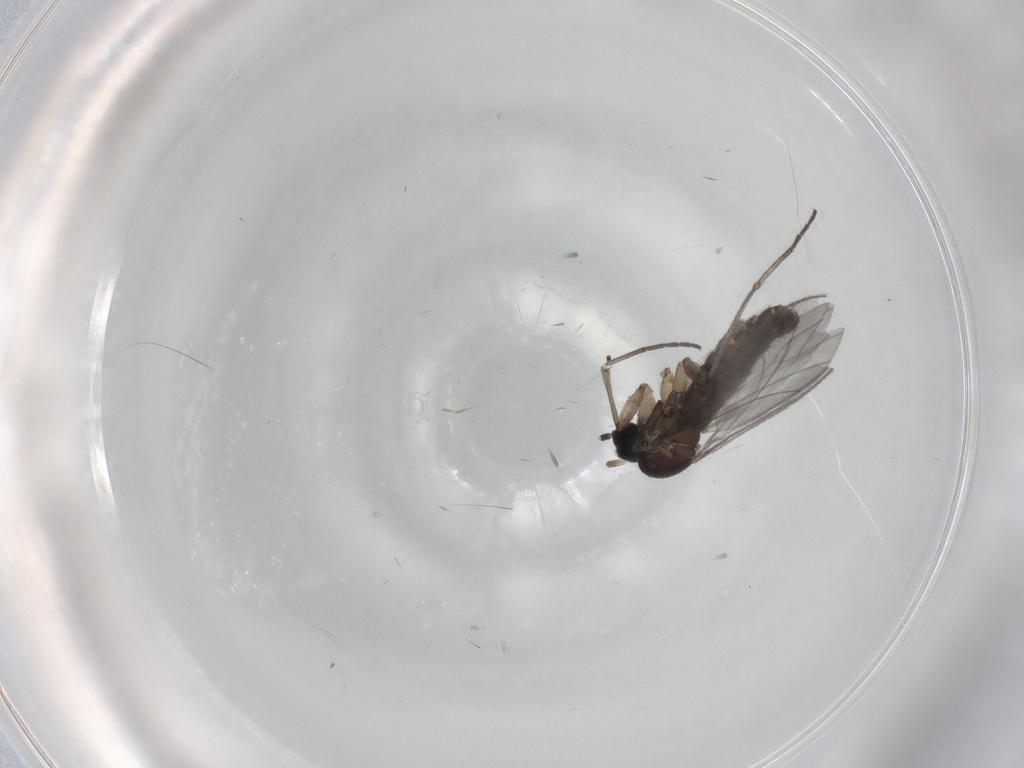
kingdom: Animalia
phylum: Arthropoda
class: Insecta
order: Diptera
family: Sciaridae
